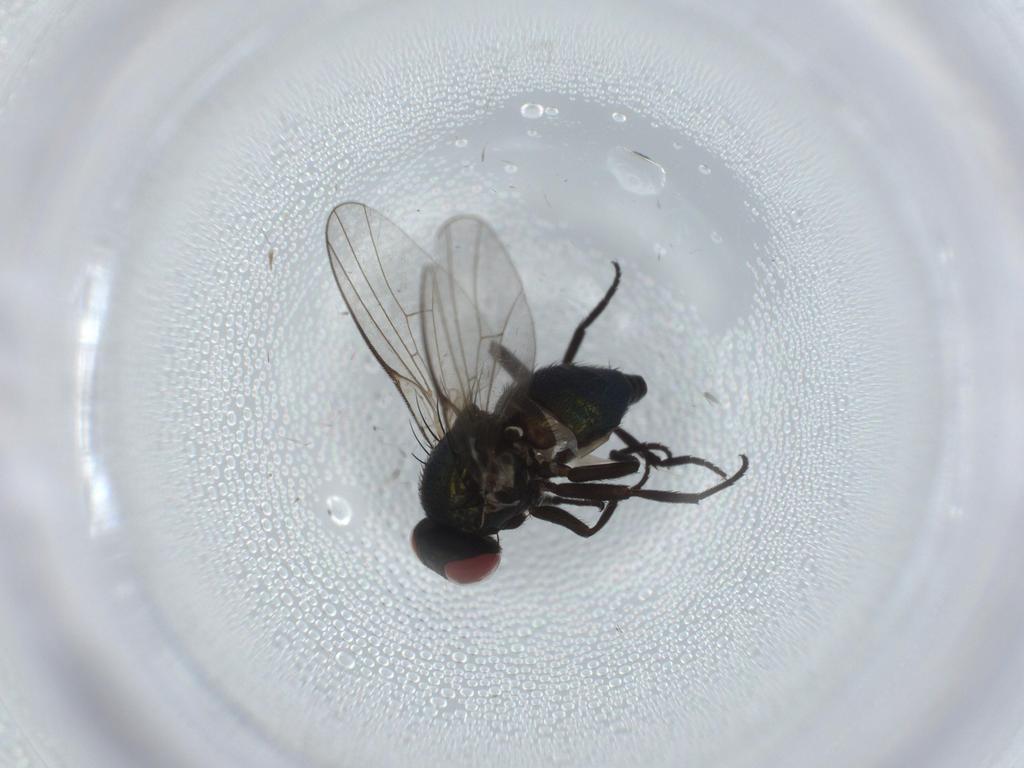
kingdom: Animalia
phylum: Arthropoda
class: Insecta
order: Diptera
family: Agromyzidae
